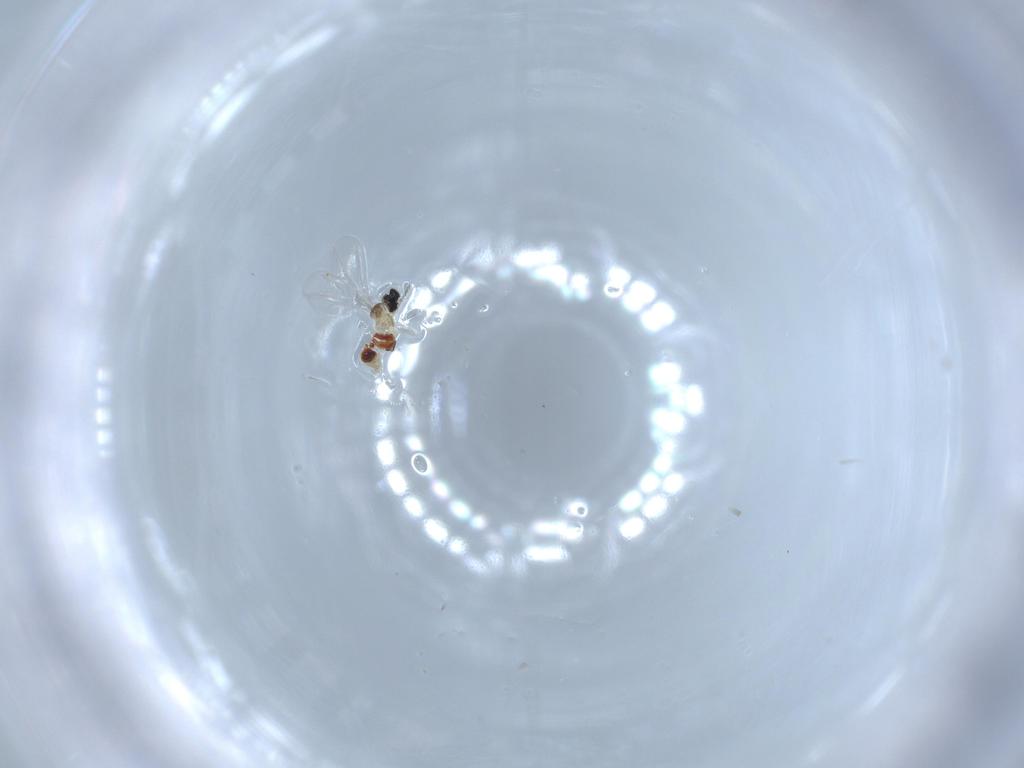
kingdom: Animalia
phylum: Arthropoda
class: Insecta
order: Diptera
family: Cecidomyiidae
